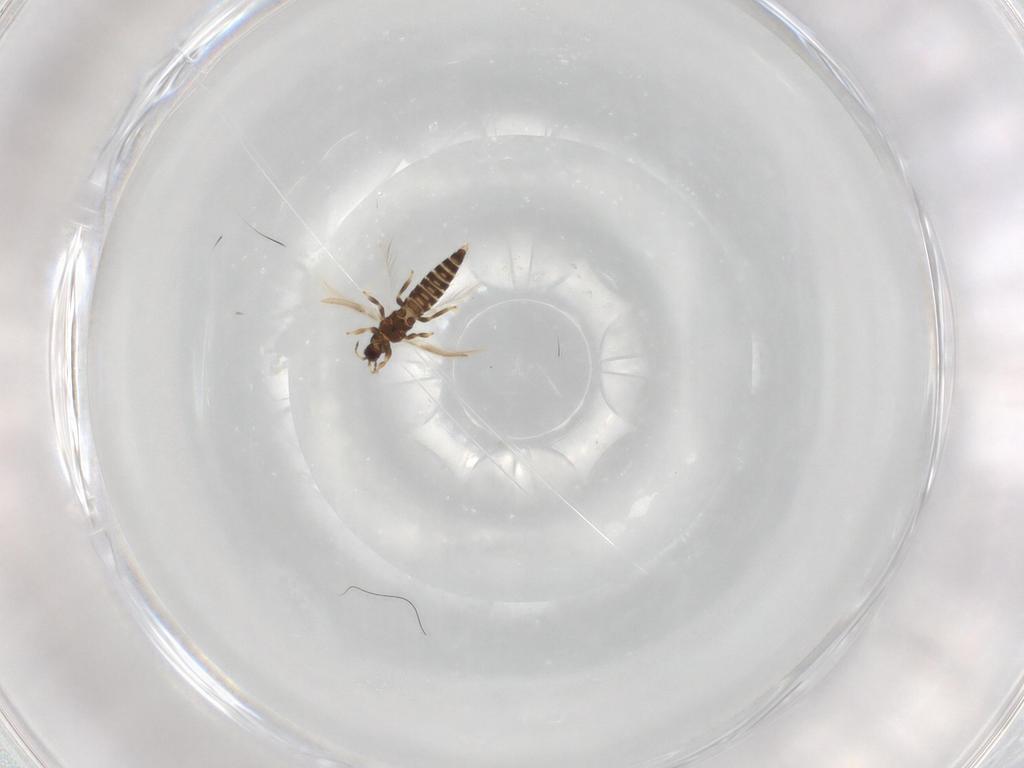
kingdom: Animalia
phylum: Arthropoda
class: Insecta
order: Thysanoptera
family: Thripidae
